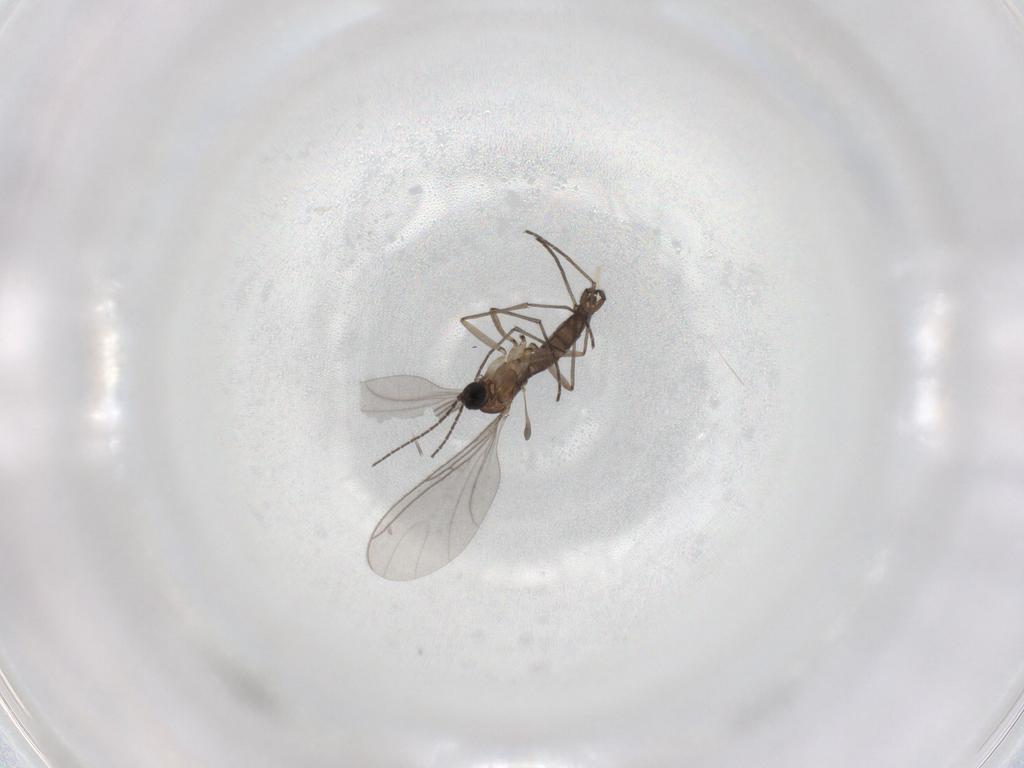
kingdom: Animalia
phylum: Arthropoda
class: Insecta
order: Diptera
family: Sciaridae
